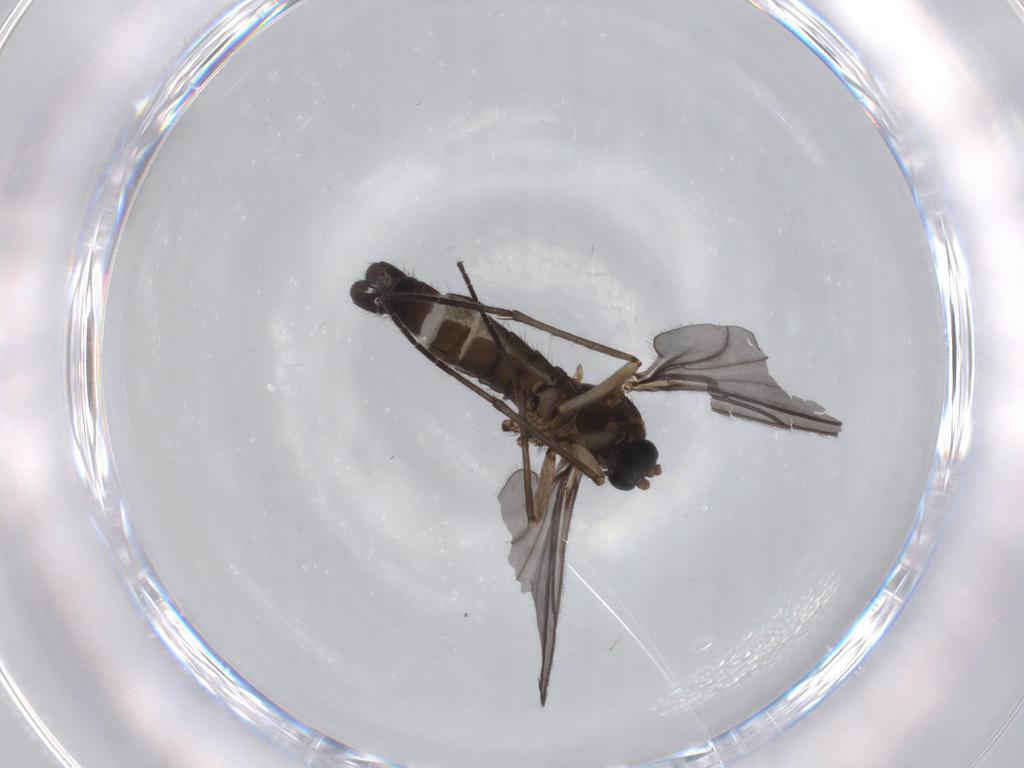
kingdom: Animalia
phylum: Arthropoda
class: Insecta
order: Diptera
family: Sciaridae
